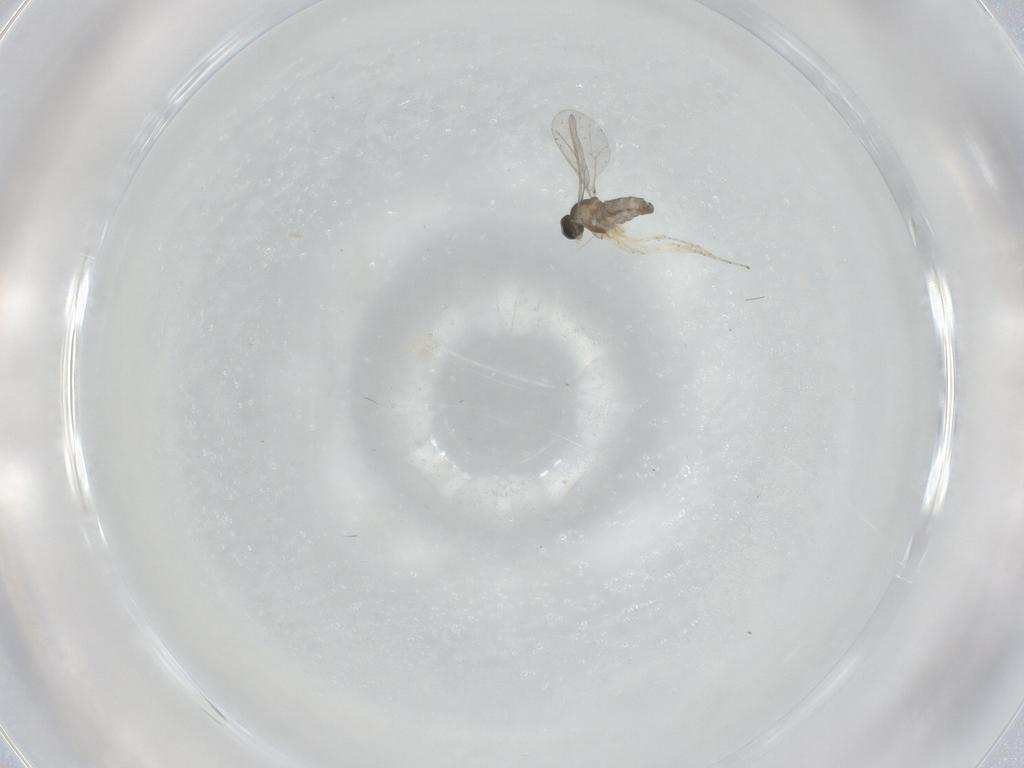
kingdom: Animalia
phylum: Arthropoda
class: Insecta
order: Diptera
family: Cecidomyiidae
